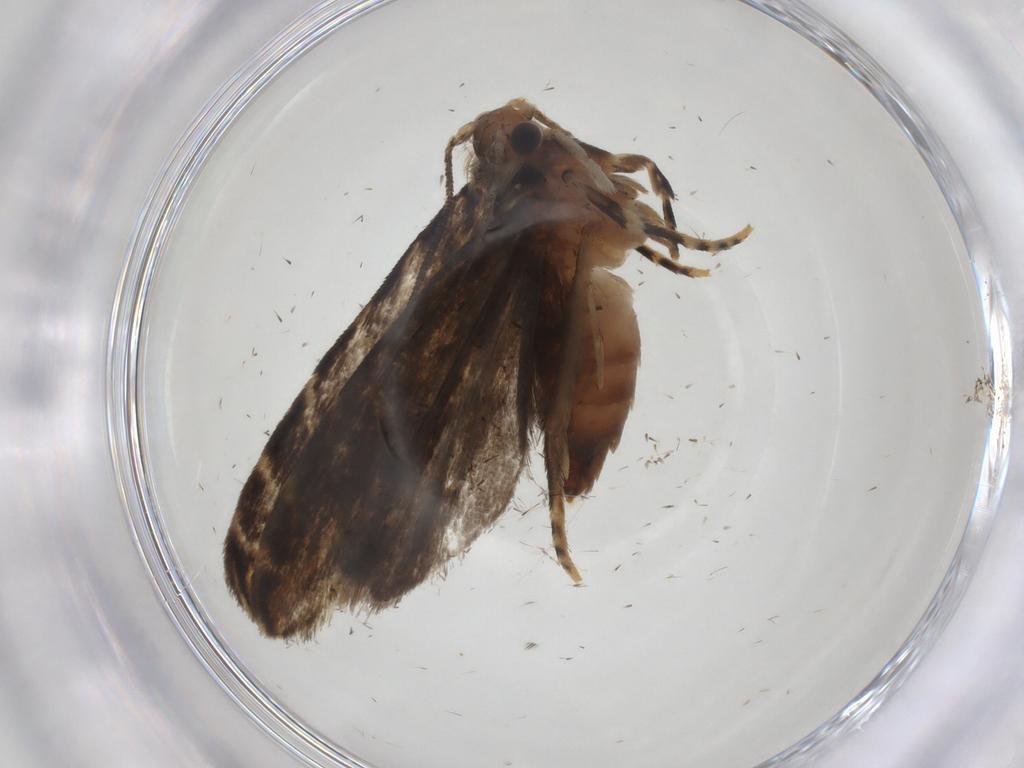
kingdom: Animalia
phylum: Arthropoda
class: Insecta
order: Lepidoptera
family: Dryadaulidae
